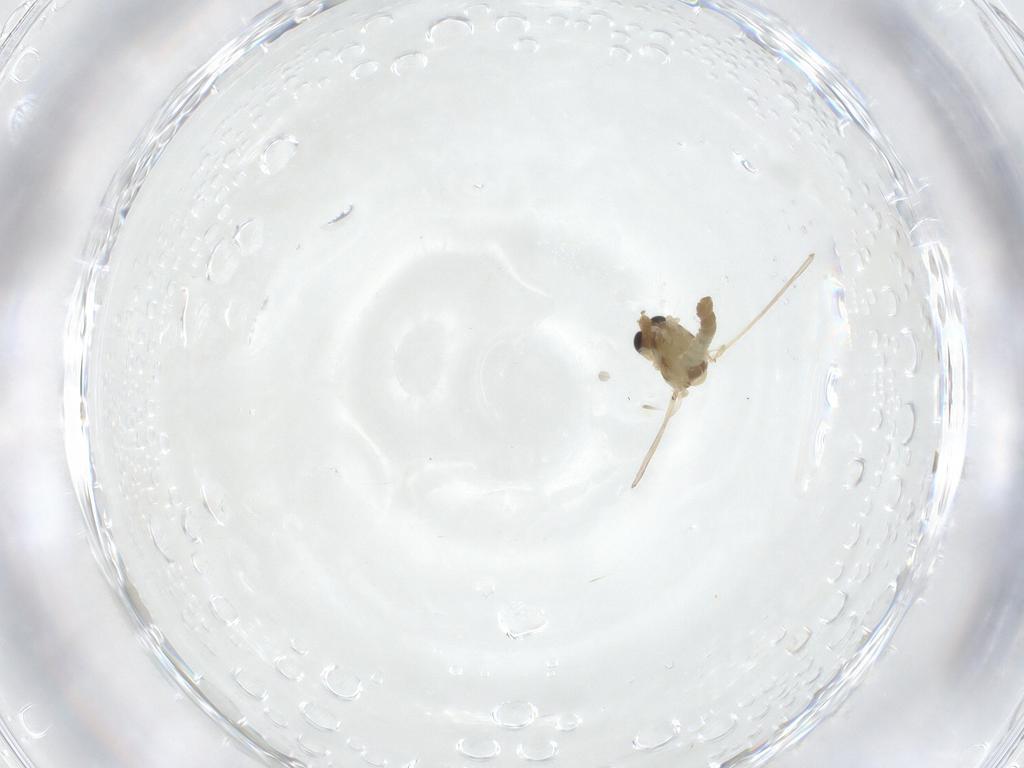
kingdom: Animalia
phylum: Arthropoda
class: Insecta
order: Diptera
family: Chironomidae
